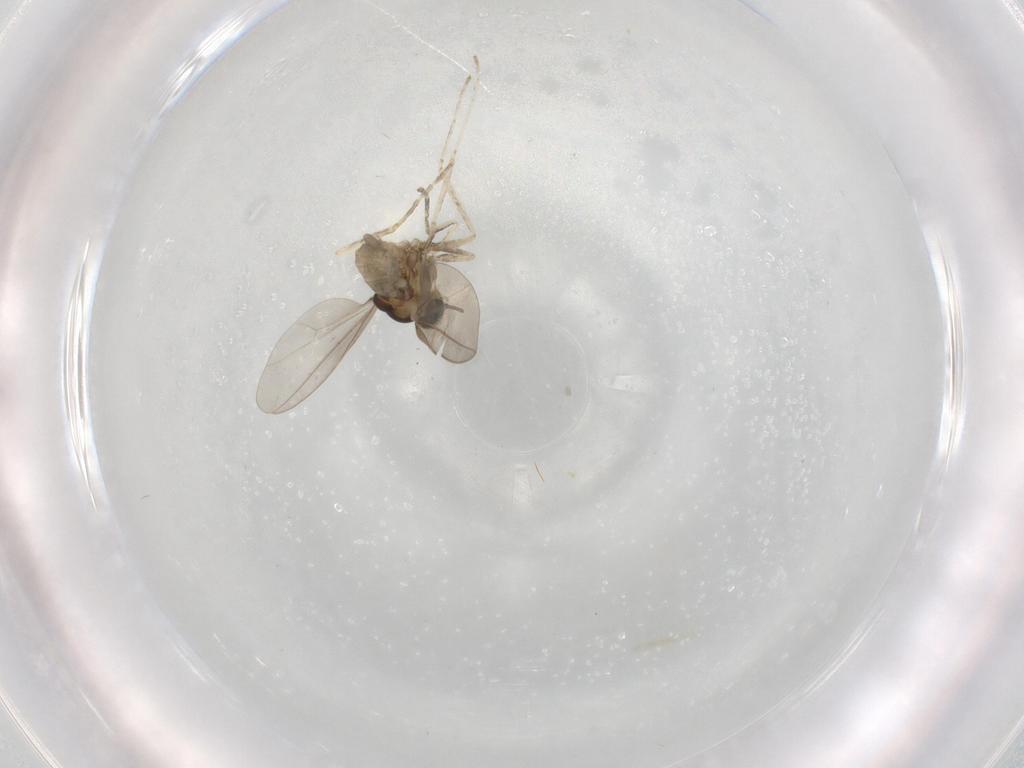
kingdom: Animalia
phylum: Arthropoda
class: Insecta
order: Diptera
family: Cecidomyiidae
